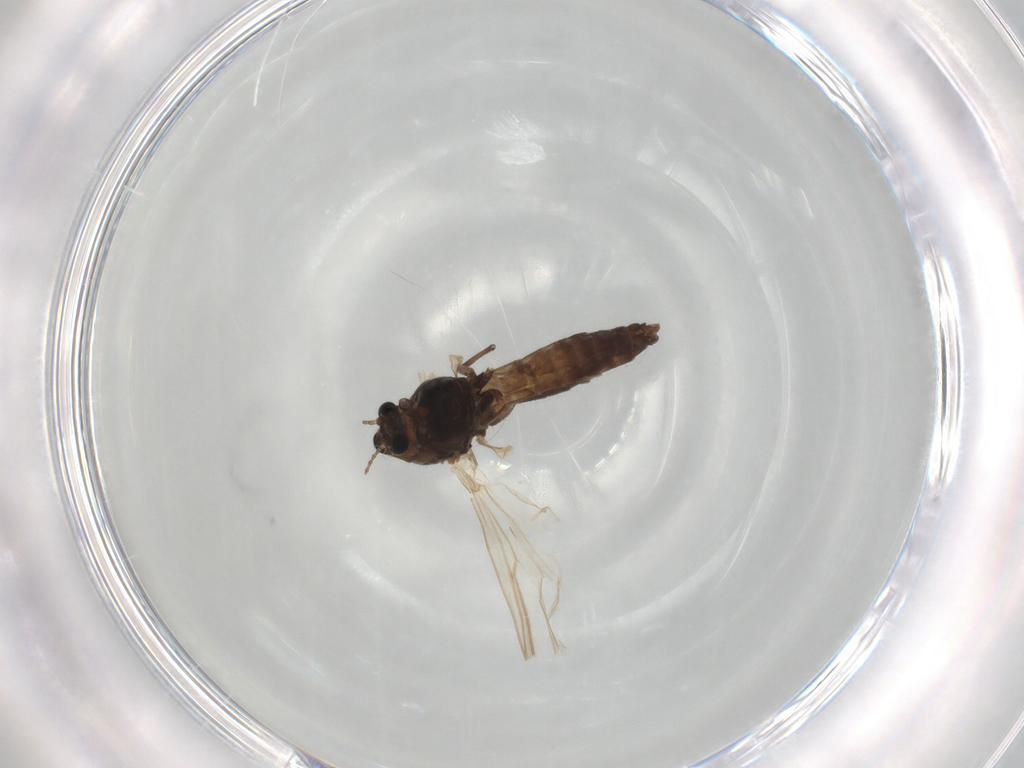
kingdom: Animalia
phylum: Arthropoda
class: Insecta
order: Diptera
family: Chironomidae
